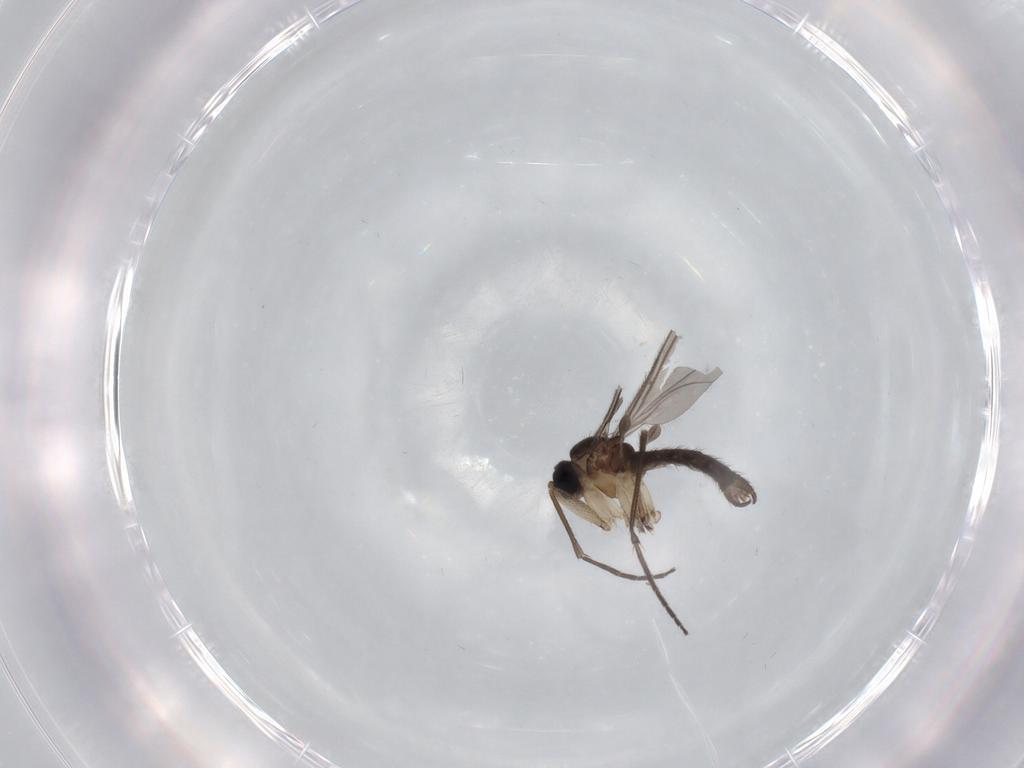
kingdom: Animalia
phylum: Arthropoda
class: Insecta
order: Diptera
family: Sciaridae
